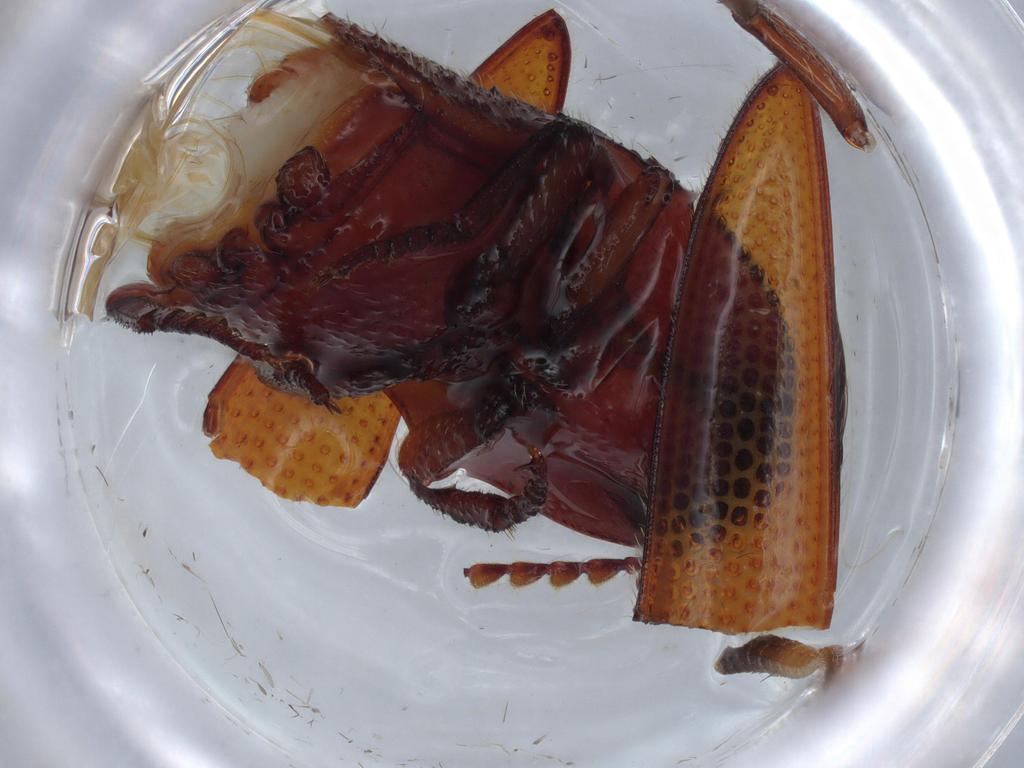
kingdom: Animalia
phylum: Arthropoda
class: Insecta
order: Coleoptera
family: Elateridae
